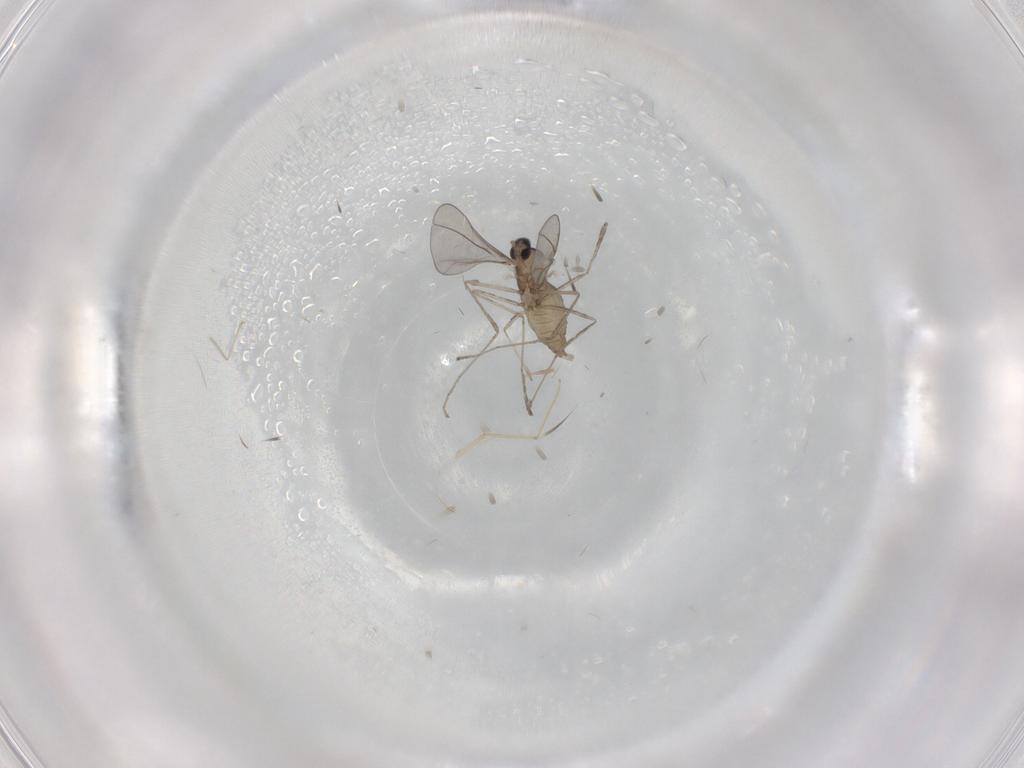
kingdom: Animalia
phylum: Arthropoda
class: Insecta
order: Diptera
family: Cecidomyiidae
